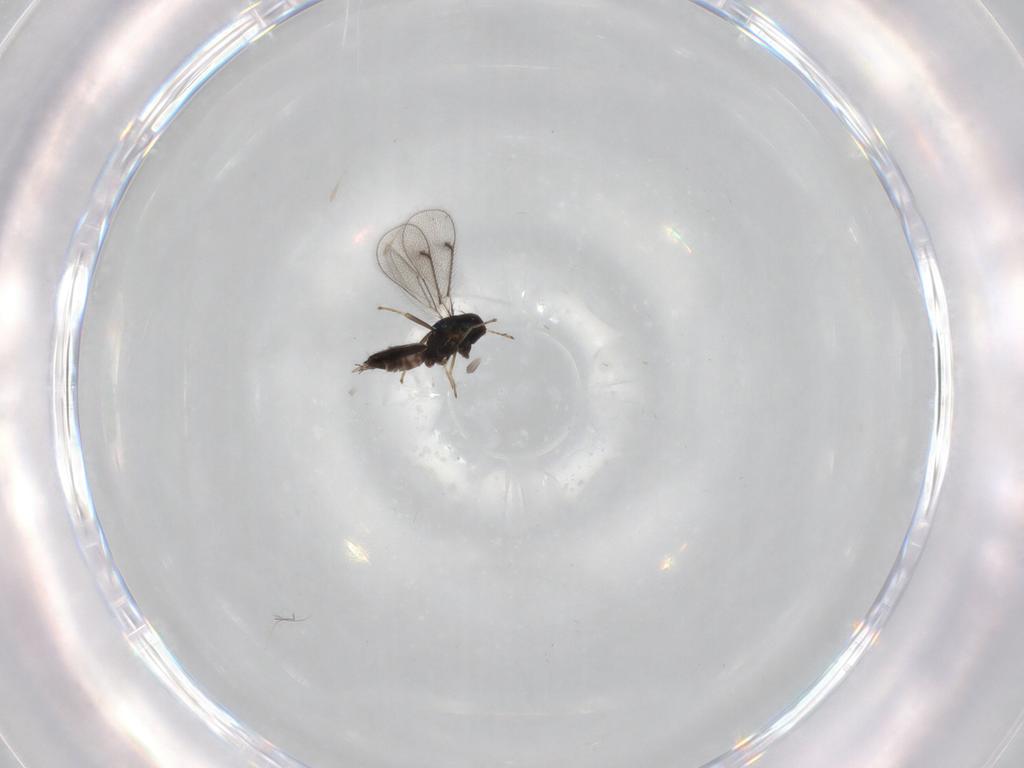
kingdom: Animalia
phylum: Arthropoda
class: Insecta
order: Hymenoptera
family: Eulophidae
